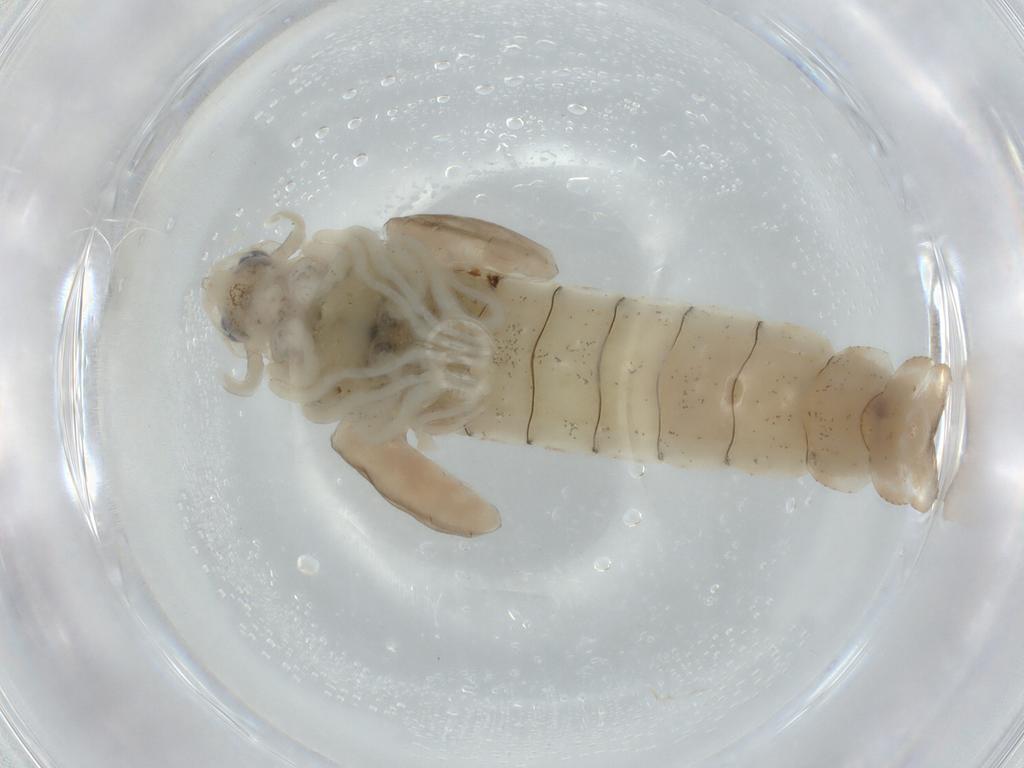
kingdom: Animalia
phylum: Arthropoda
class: Insecta
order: Diptera
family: Chironomidae
